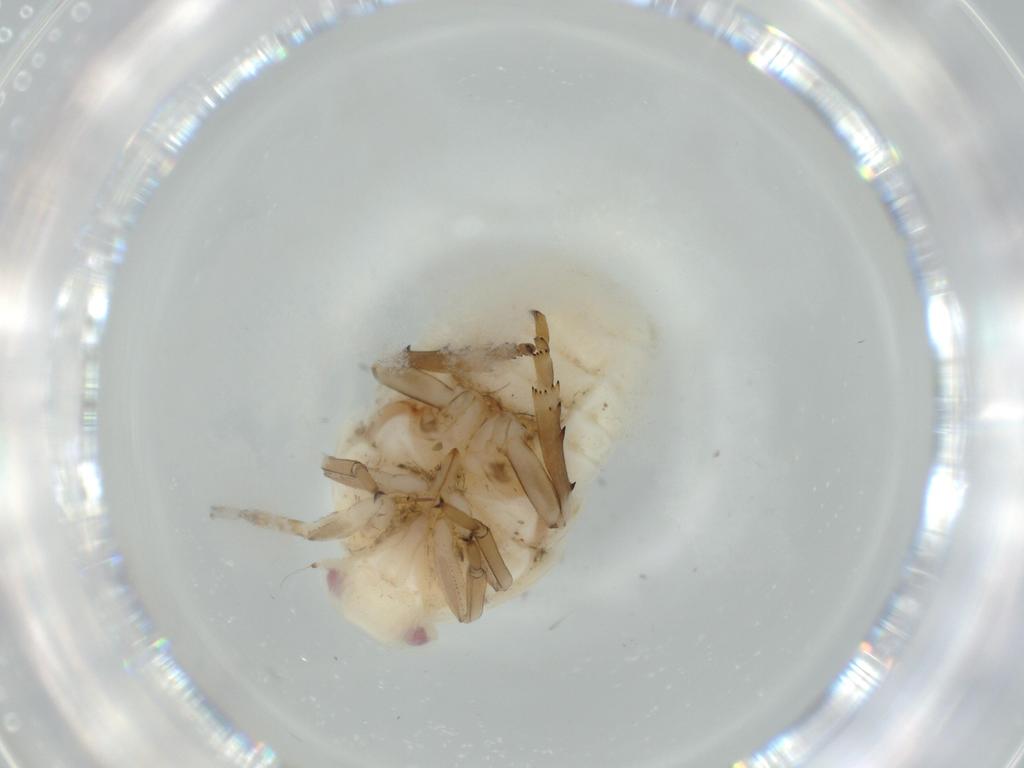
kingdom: Animalia
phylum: Arthropoda
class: Insecta
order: Hemiptera
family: Flatidae
